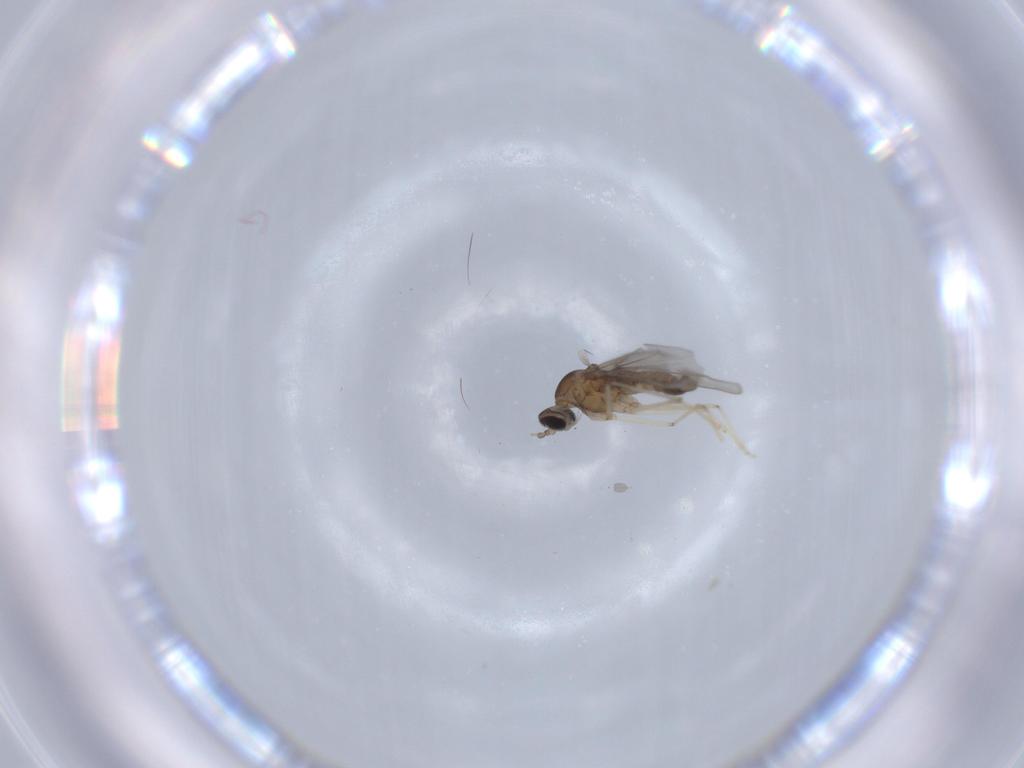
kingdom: Animalia
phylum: Arthropoda
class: Insecta
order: Diptera
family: Cecidomyiidae
